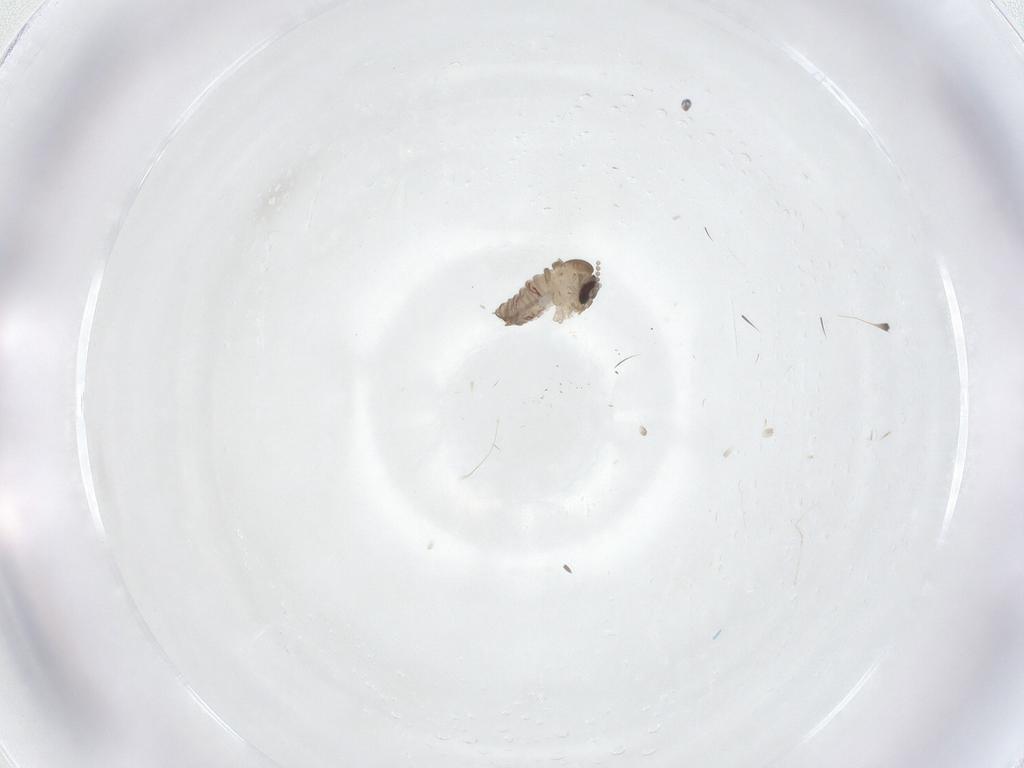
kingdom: Animalia
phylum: Arthropoda
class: Insecta
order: Diptera
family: Psychodidae
